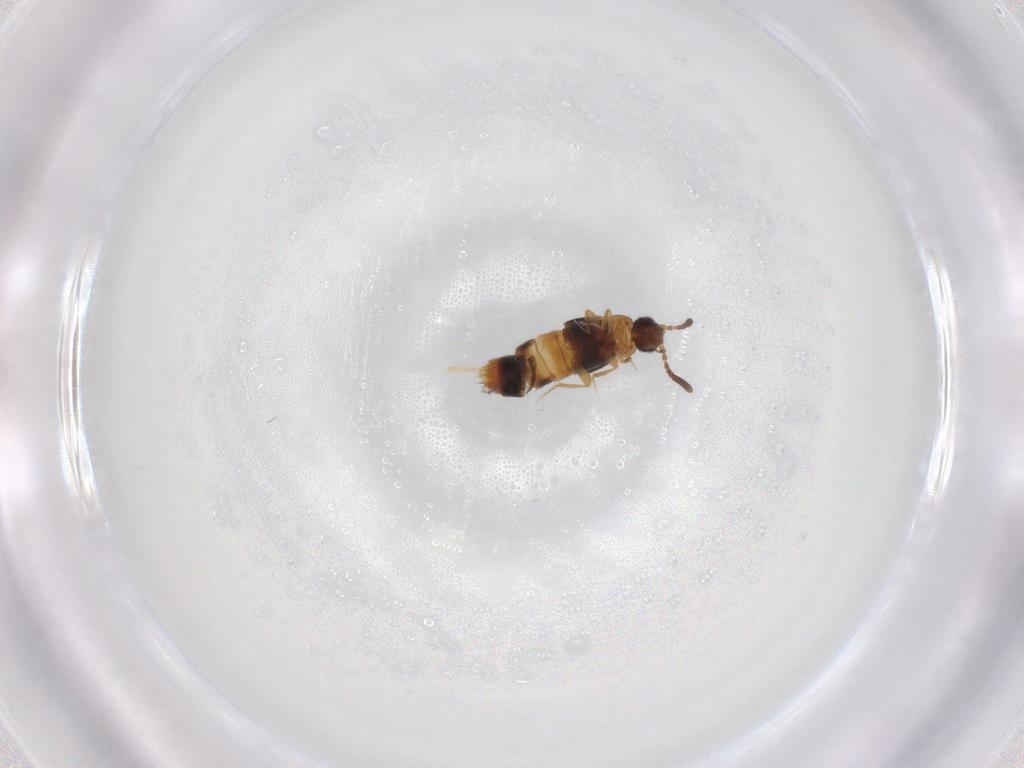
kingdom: Animalia
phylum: Arthropoda
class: Insecta
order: Coleoptera
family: Staphylinidae
